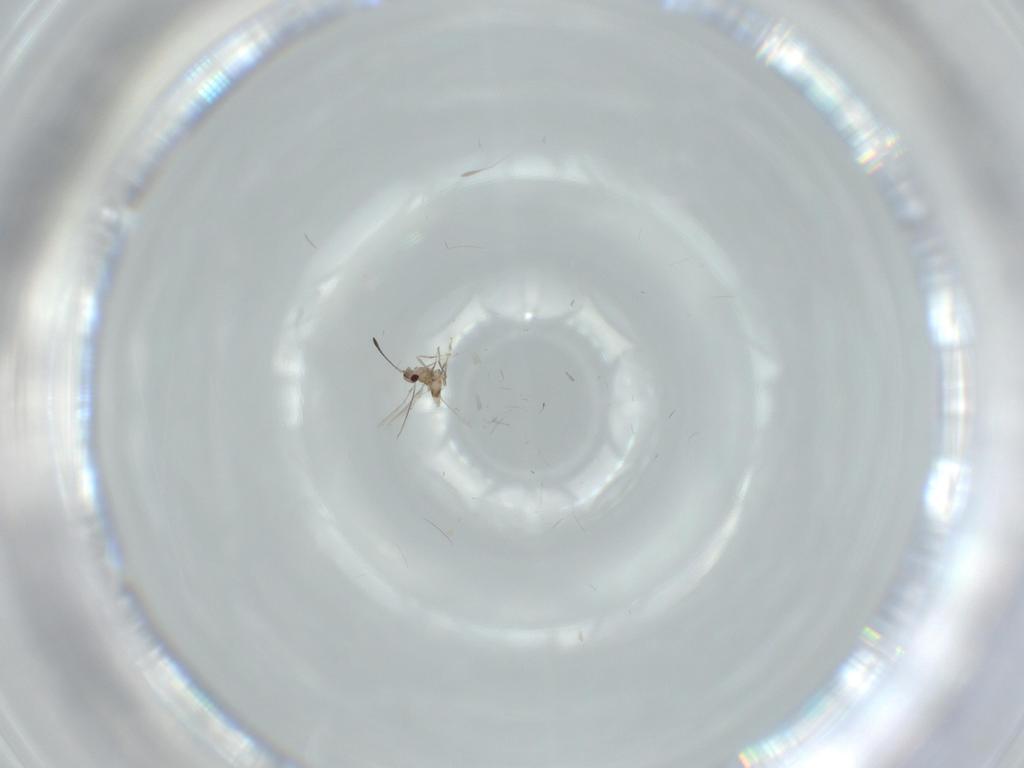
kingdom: Animalia
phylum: Arthropoda
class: Insecta
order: Hymenoptera
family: Mymaridae
